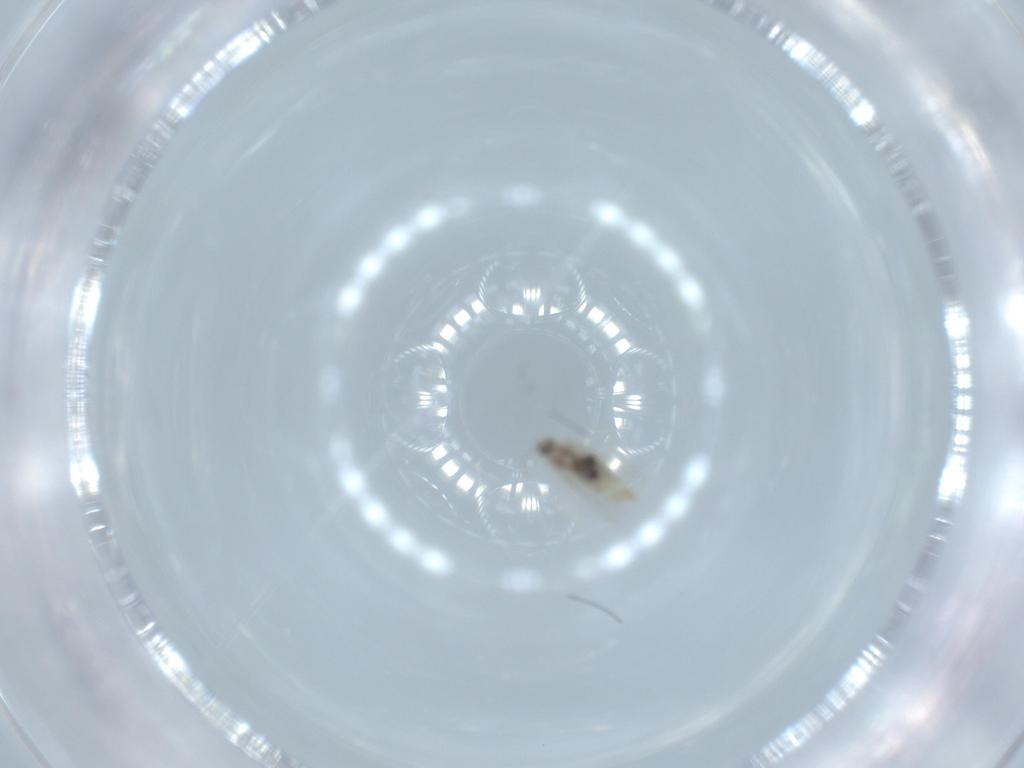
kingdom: Animalia
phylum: Arthropoda
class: Insecta
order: Diptera
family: Cecidomyiidae
